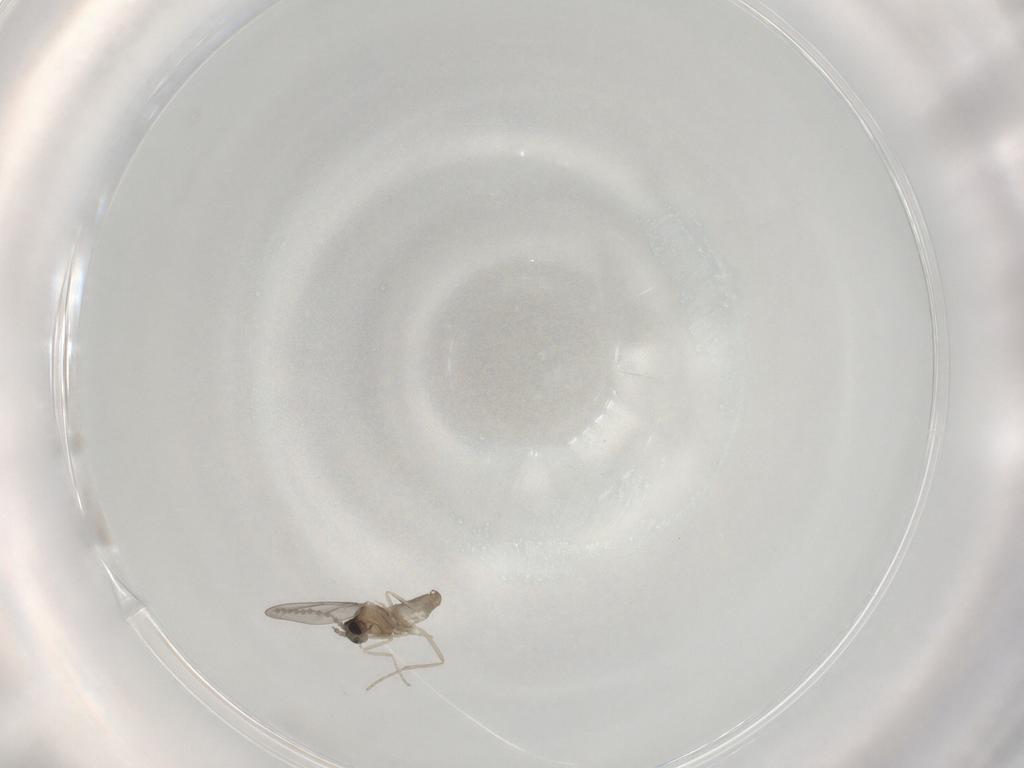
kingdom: Animalia
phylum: Arthropoda
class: Insecta
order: Diptera
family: Cecidomyiidae
